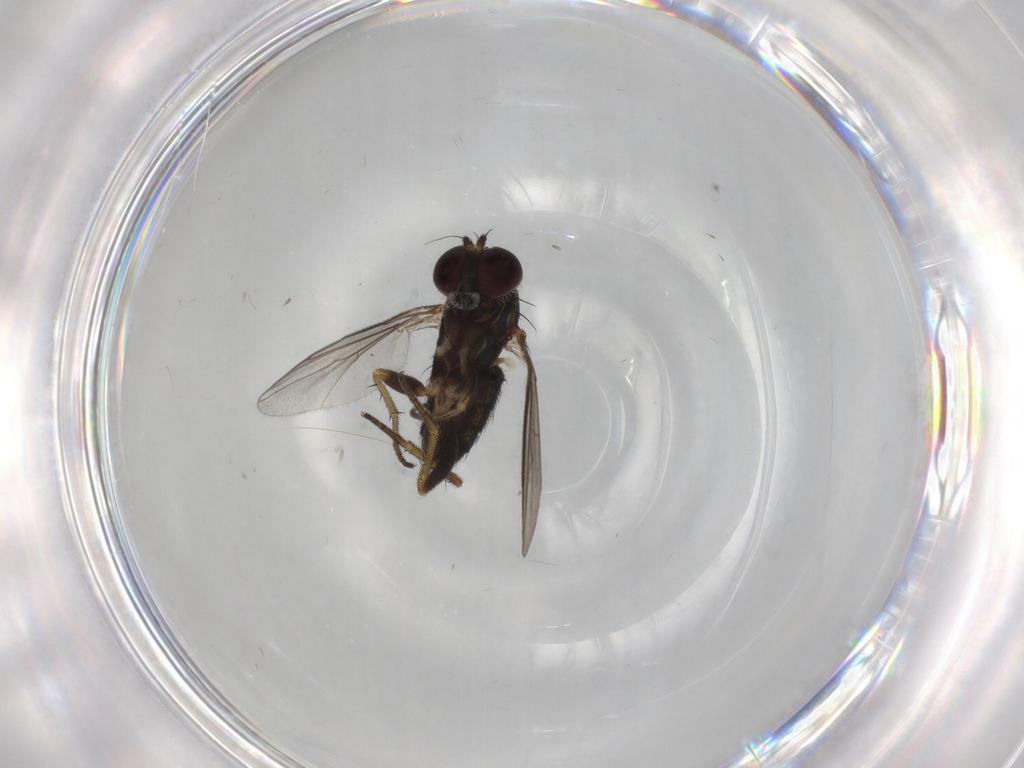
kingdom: Animalia
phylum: Arthropoda
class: Insecta
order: Diptera
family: Dolichopodidae
